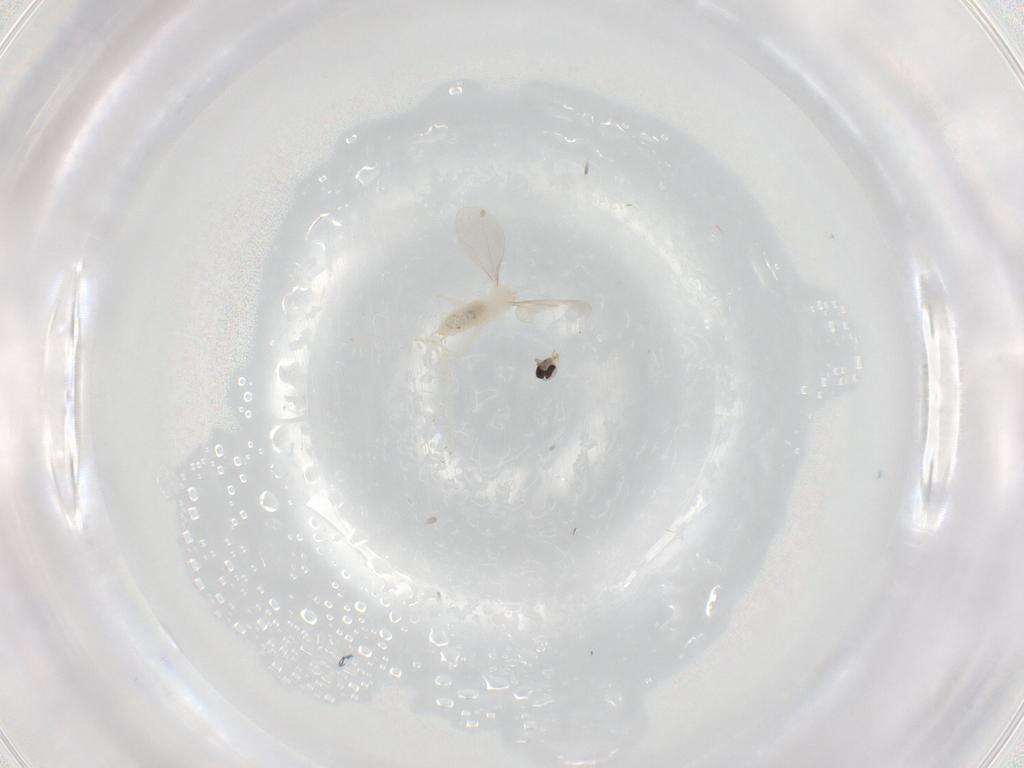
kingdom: Animalia
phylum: Arthropoda
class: Insecta
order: Diptera
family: Cecidomyiidae
